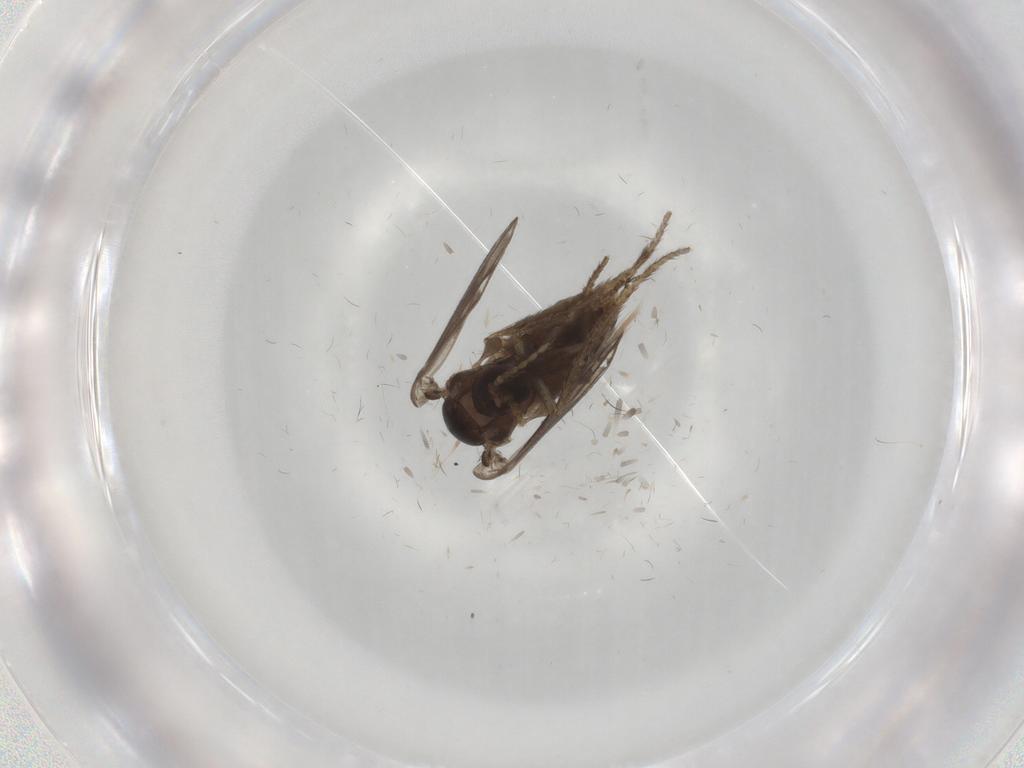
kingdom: Animalia
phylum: Arthropoda
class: Insecta
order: Diptera
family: Psychodidae
